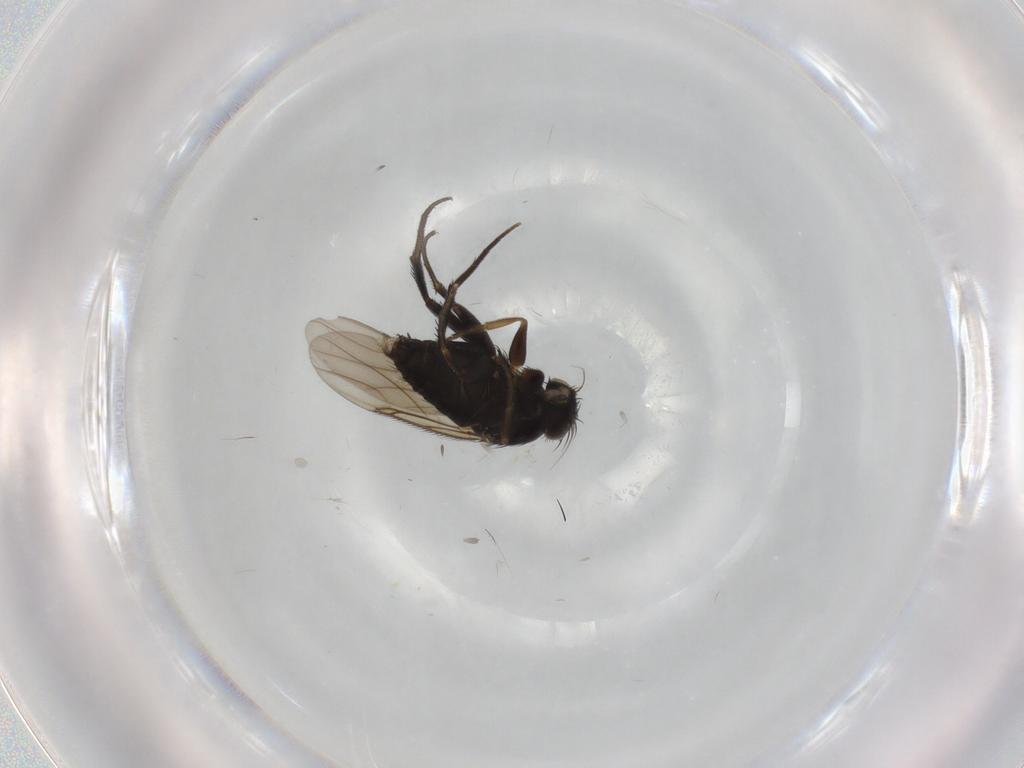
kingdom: Animalia
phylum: Arthropoda
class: Insecta
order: Diptera
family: Phoridae
